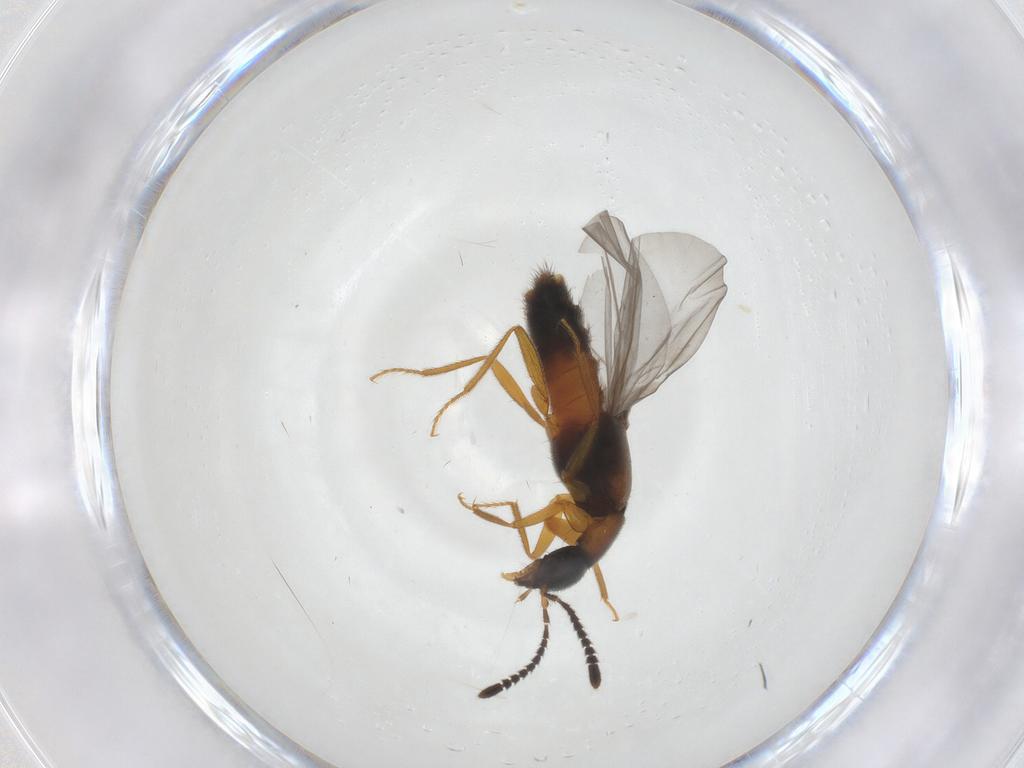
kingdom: Animalia
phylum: Arthropoda
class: Insecta
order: Coleoptera
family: Staphylinidae
